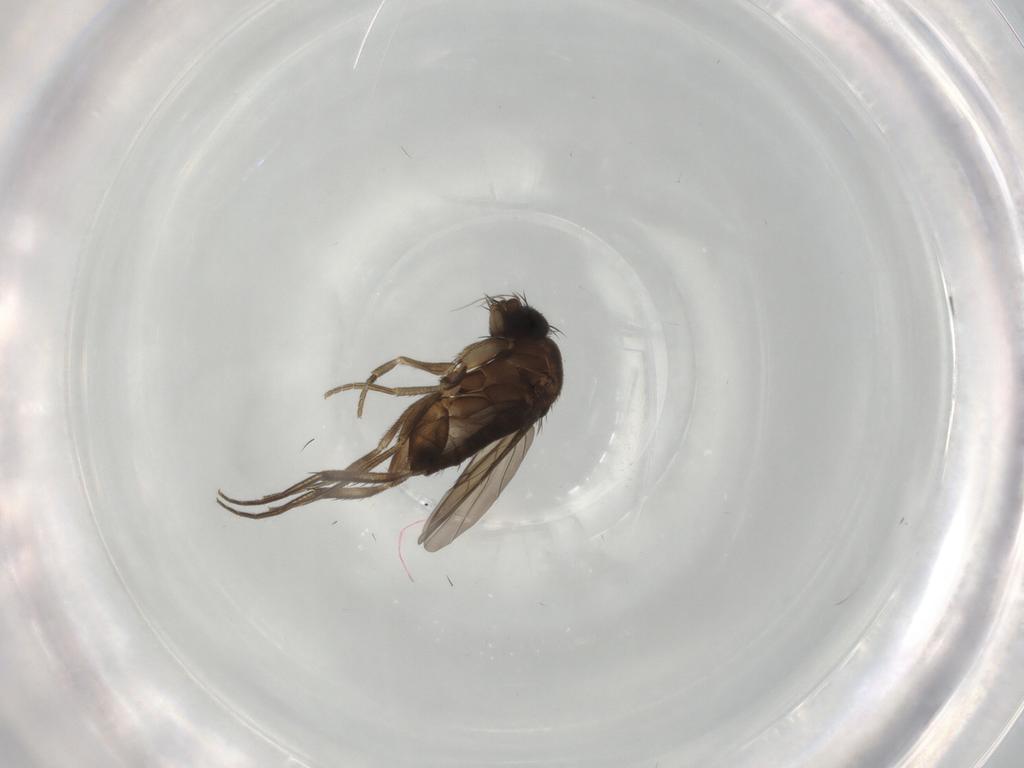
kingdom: Animalia
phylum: Arthropoda
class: Insecta
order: Diptera
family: Phoridae
